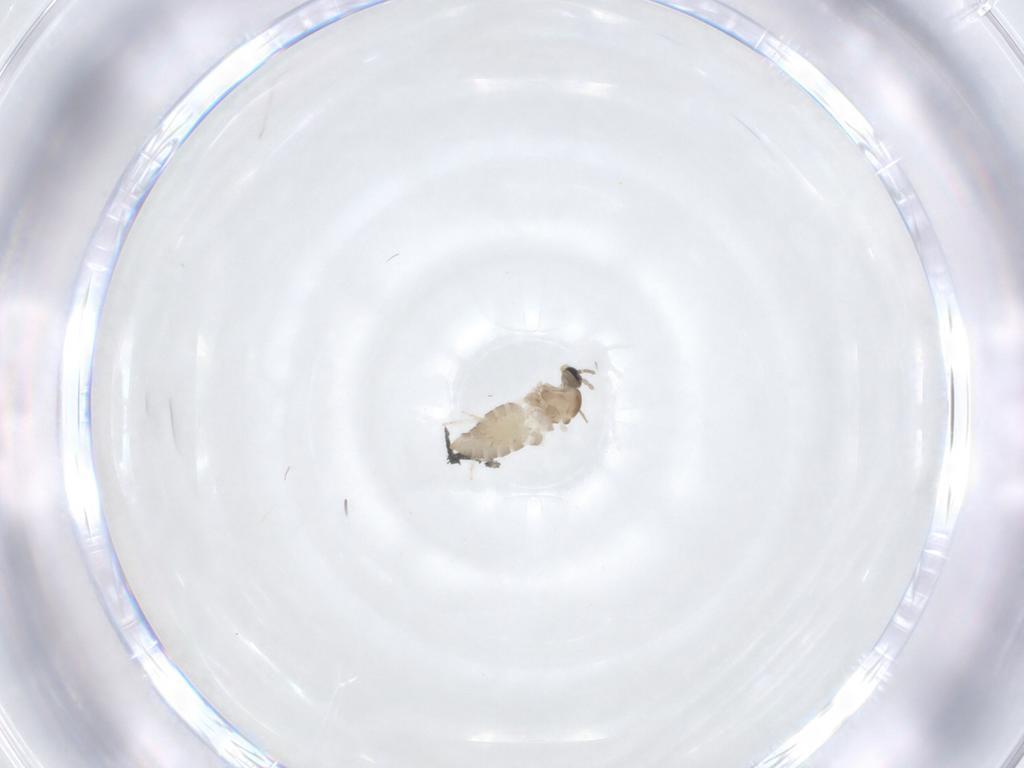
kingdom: Animalia
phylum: Arthropoda
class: Insecta
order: Diptera
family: Cecidomyiidae
